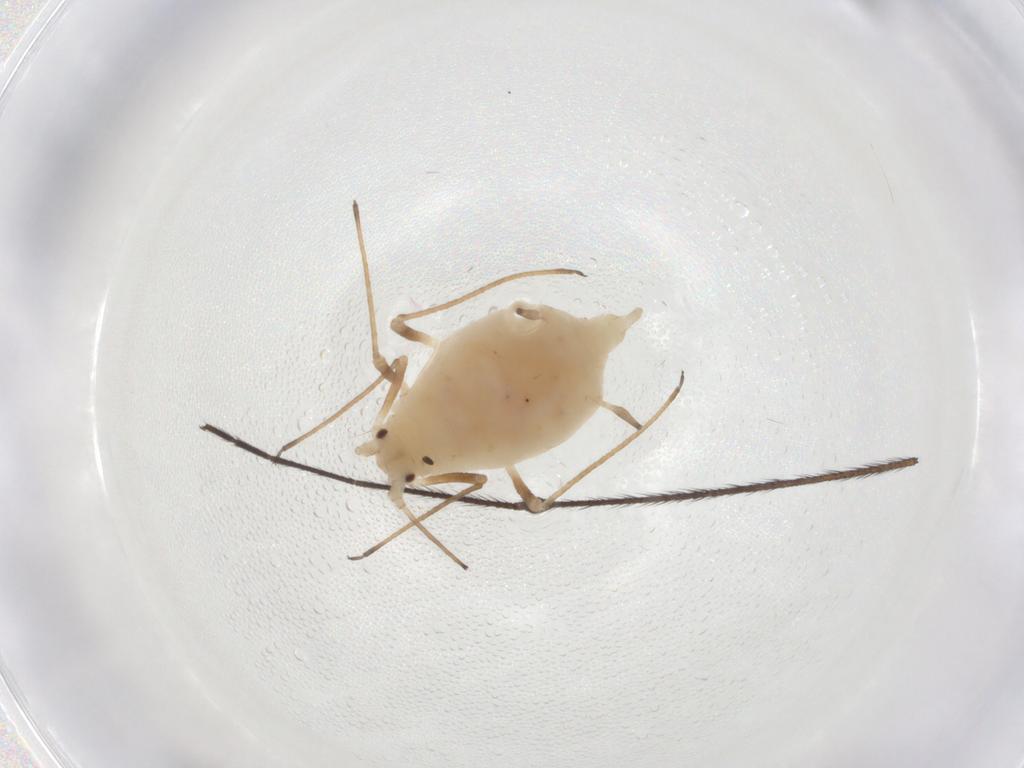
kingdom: Animalia
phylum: Arthropoda
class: Insecta
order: Hemiptera
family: Aphididae
